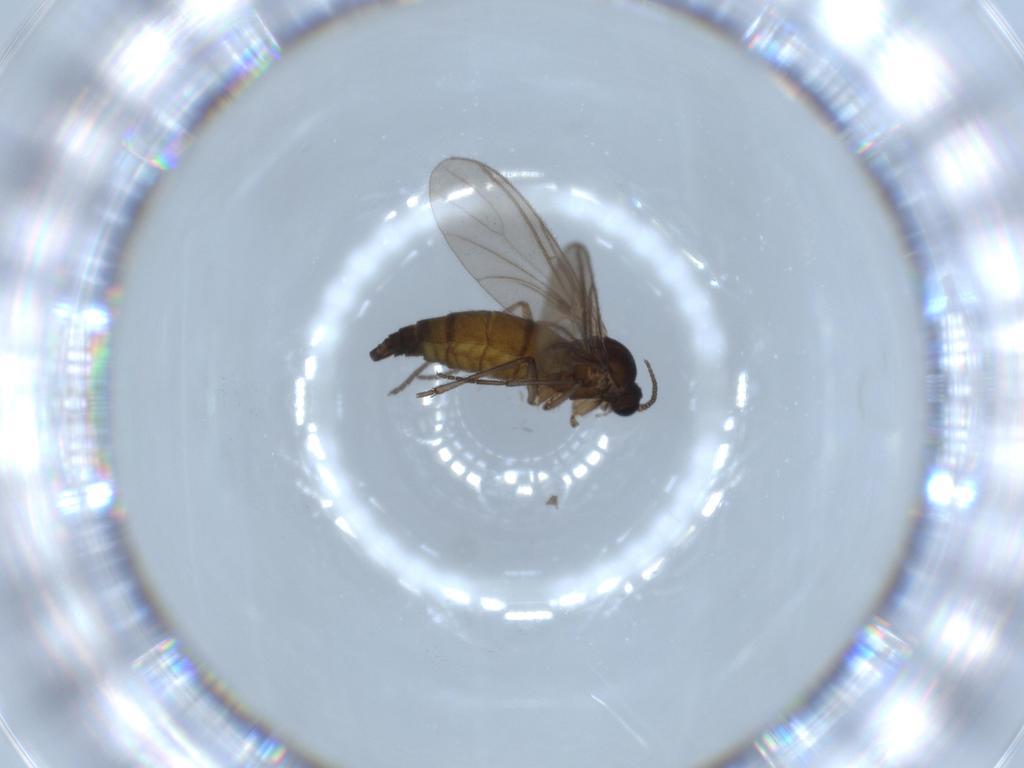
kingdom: Animalia
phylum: Arthropoda
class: Insecta
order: Diptera
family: Sciaridae
